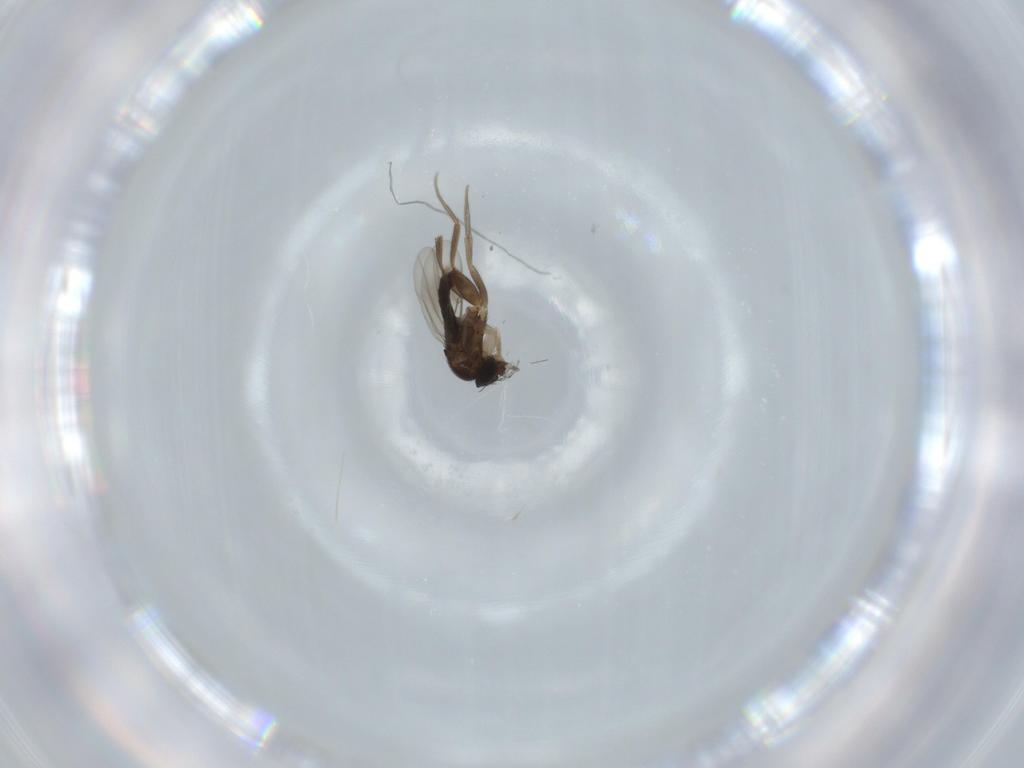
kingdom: Animalia
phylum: Arthropoda
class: Insecta
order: Diptera
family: Phoridae
